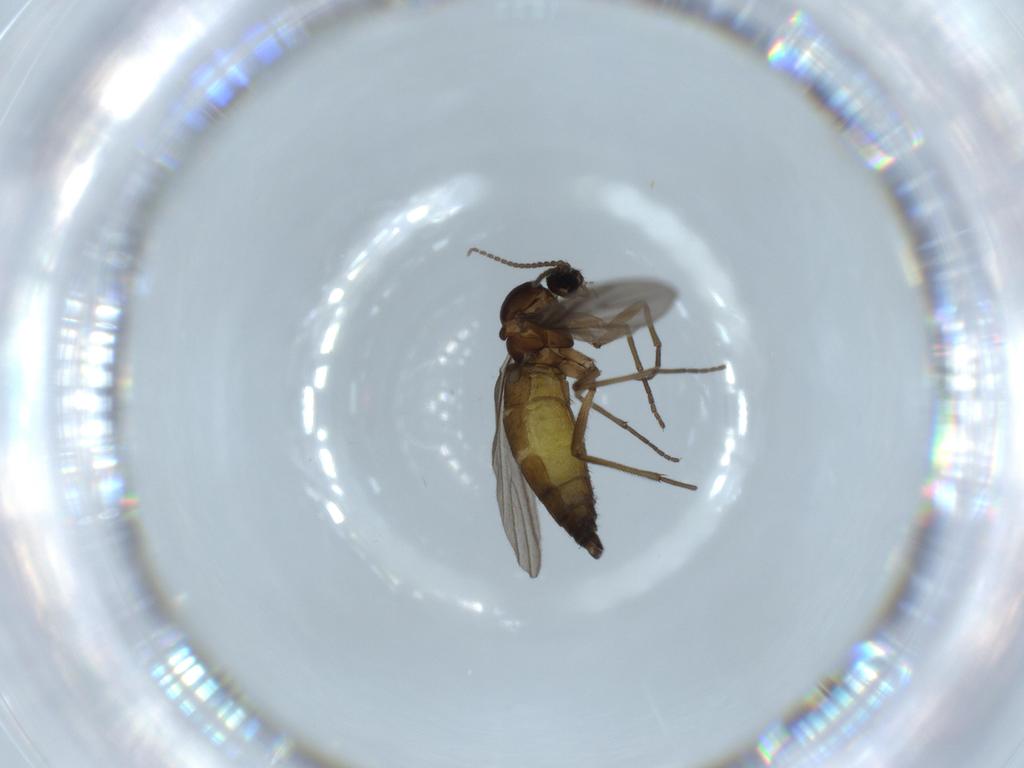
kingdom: Animalia
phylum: Arthropoda
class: Insecta
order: Diptera
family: Sciaridae
